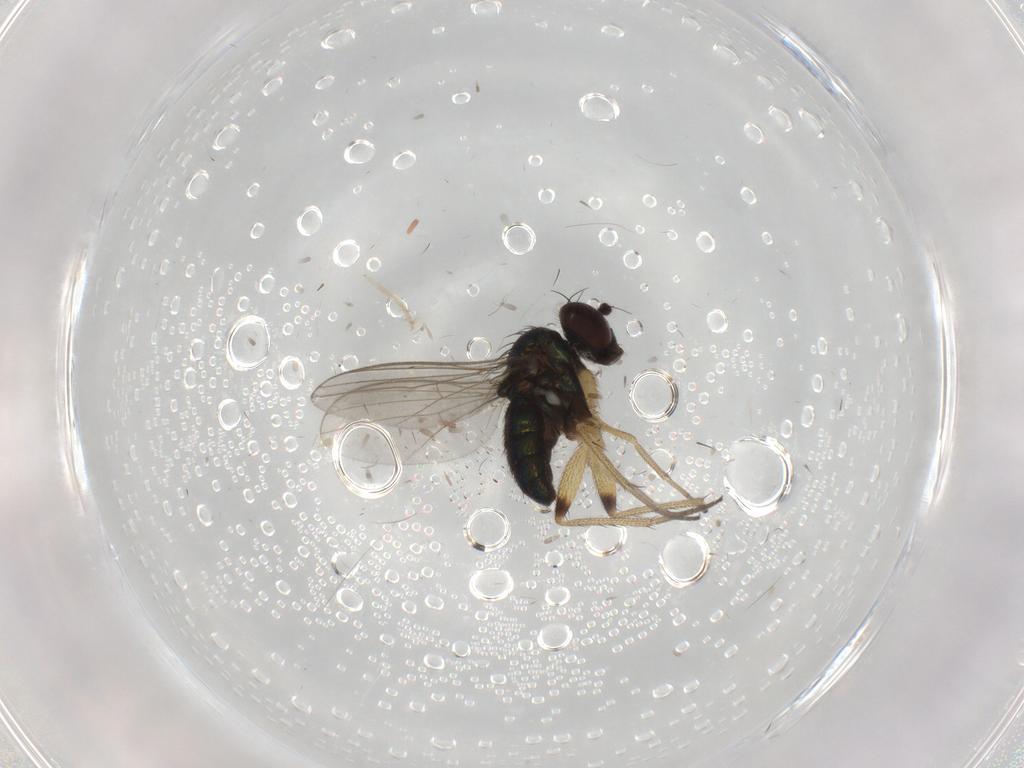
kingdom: Animalia
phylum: Arthropoda
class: Insecta
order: Diptera
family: Chironomidae
